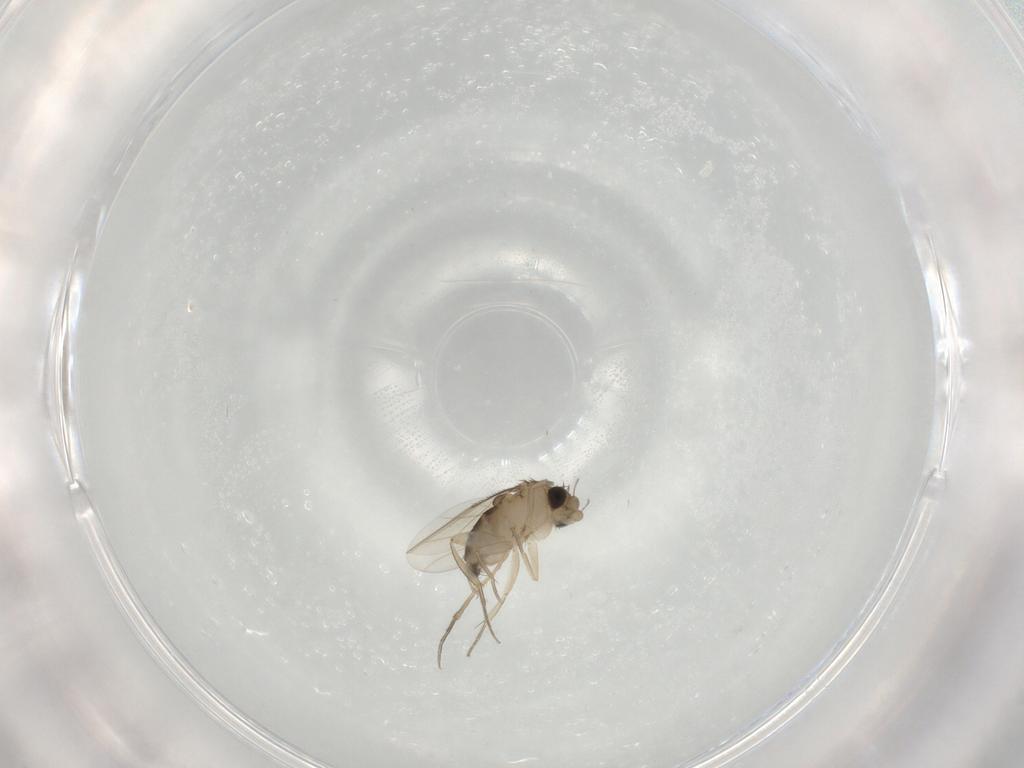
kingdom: Animalia
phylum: Arthropoda
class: Insecta
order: Diptera
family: Phoridae
